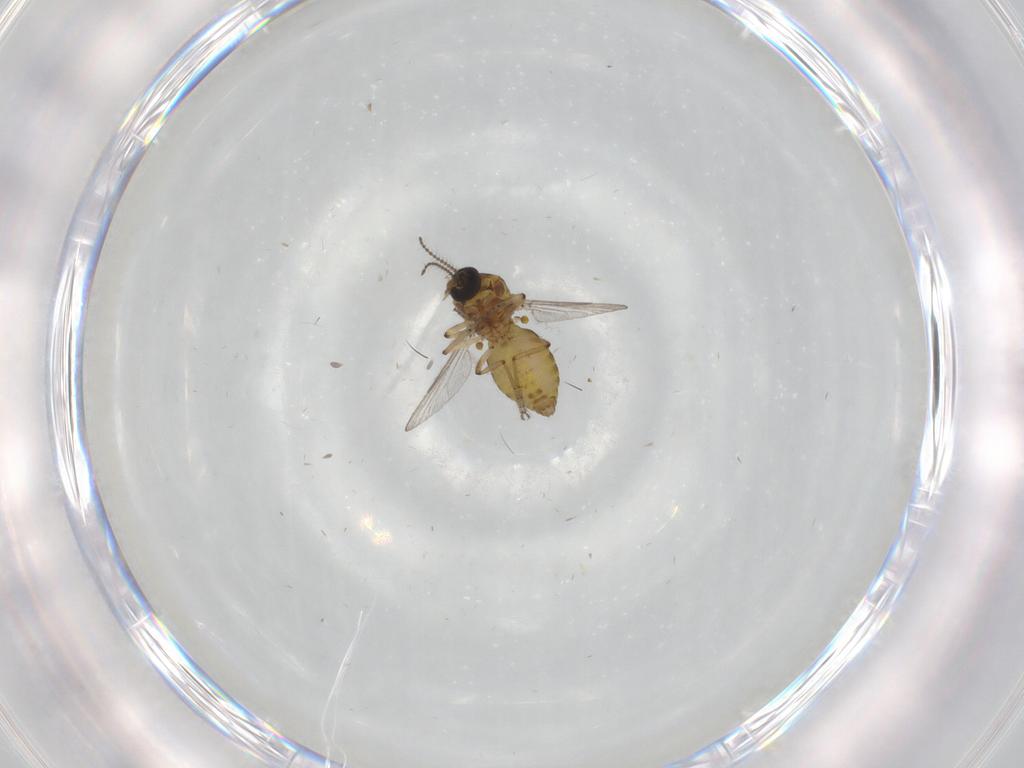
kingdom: Animalia
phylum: Arthropoda
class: Insecta
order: Diptera
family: Ceratopogonidae
